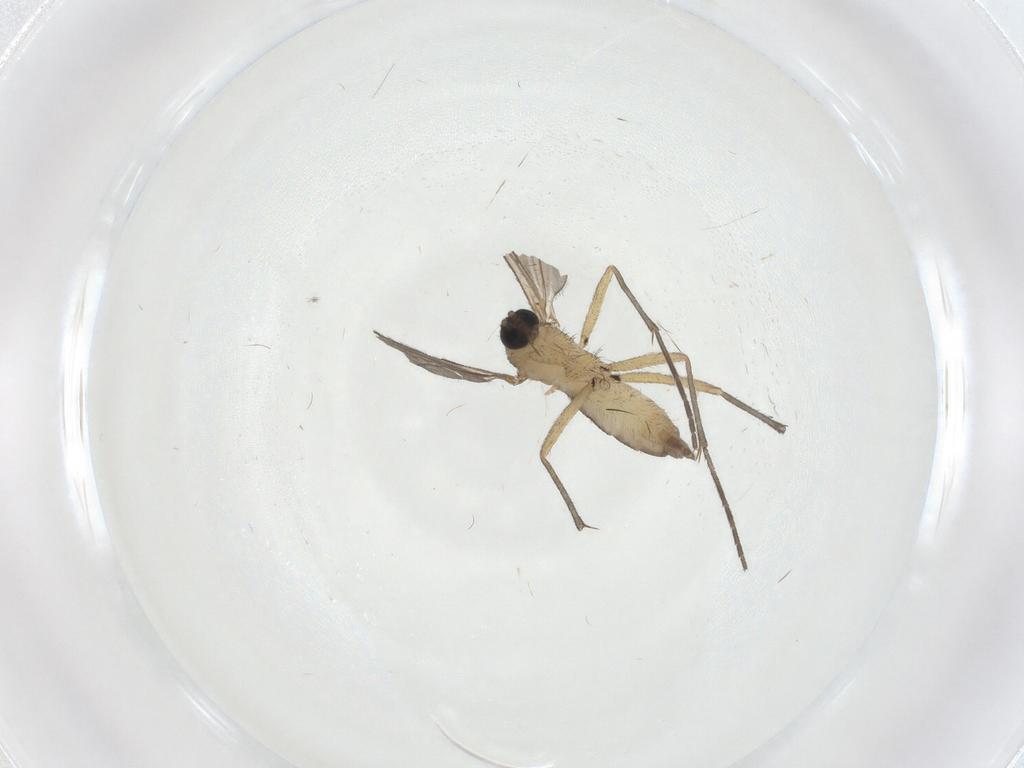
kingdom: Animalia
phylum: Arthropoda
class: Insecta
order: Diptera
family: Sciaridae
